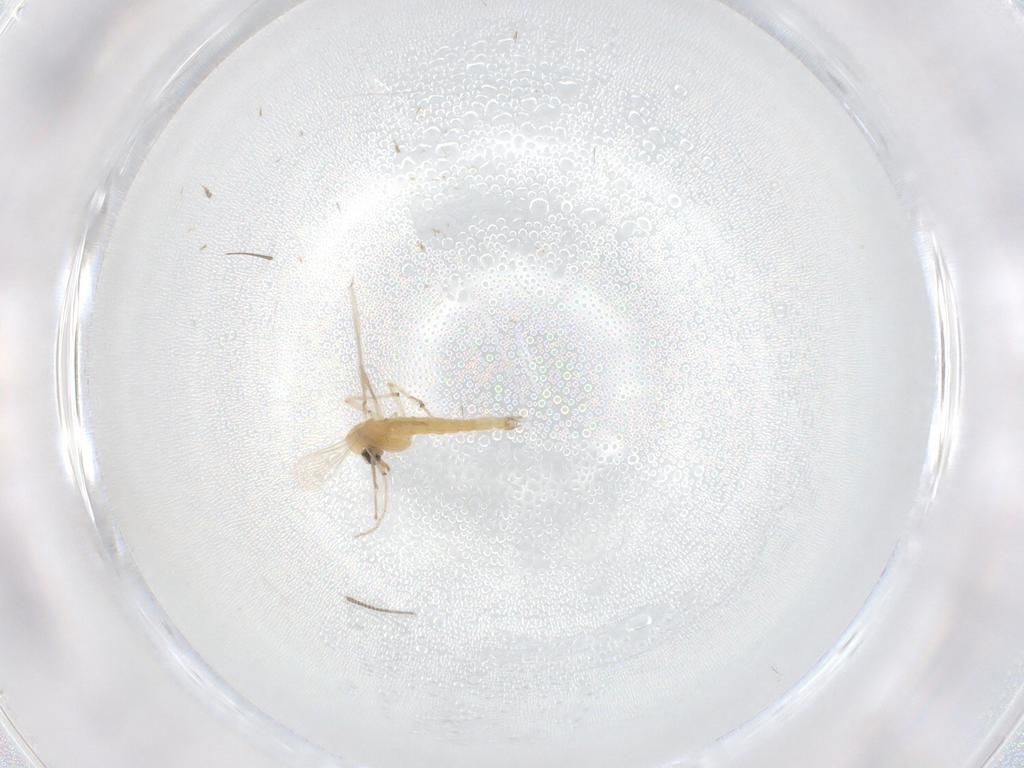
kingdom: Animalia
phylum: Arthropoda
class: Insecta
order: Diptera
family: Chironomidae
